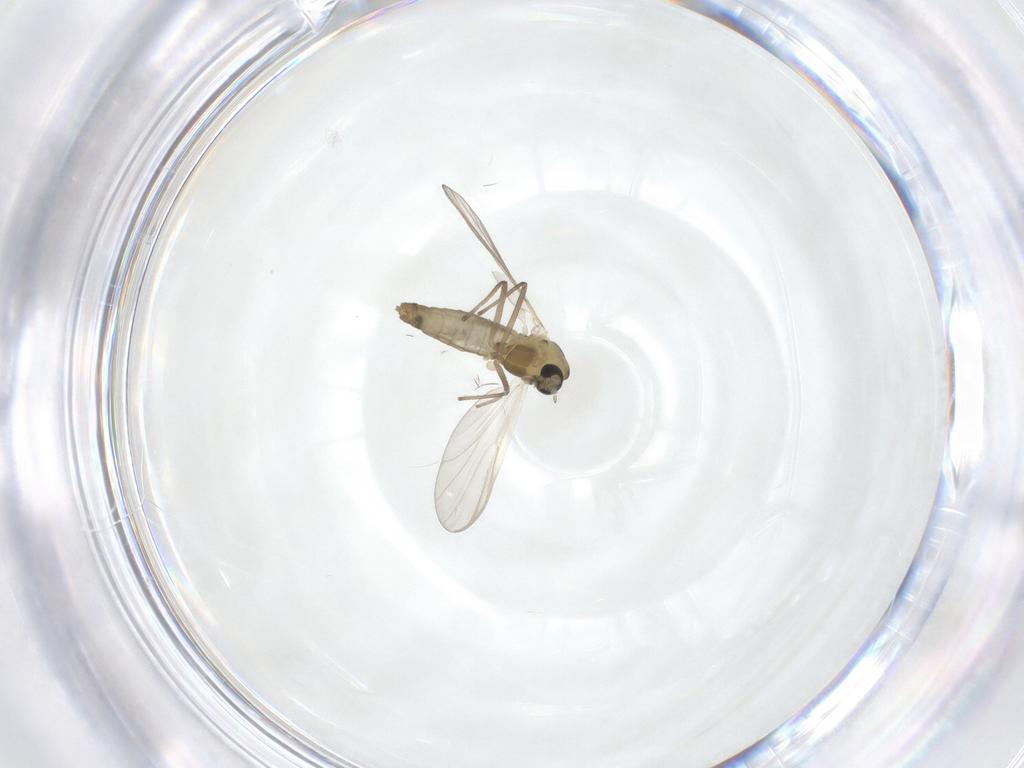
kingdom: Animalia
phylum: Arthropoda
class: Insecta
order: Diptera
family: Chironomidae
